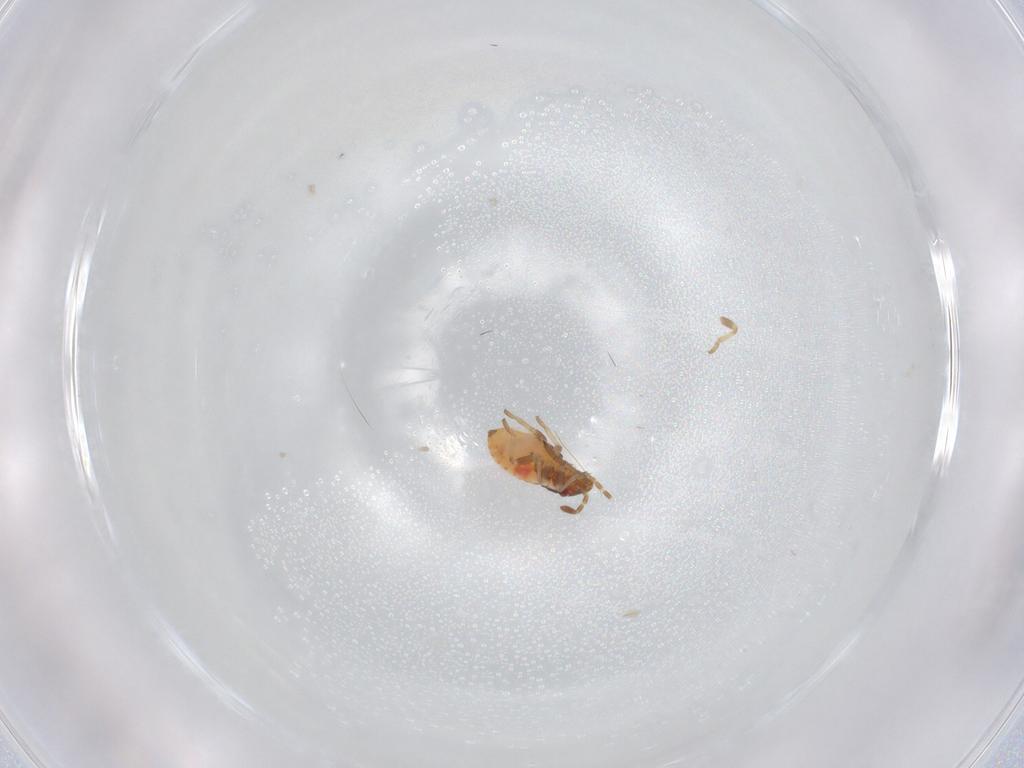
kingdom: Animalia
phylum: Arthropoda
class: Insecta
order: Hemiptera
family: Lygaeidae
